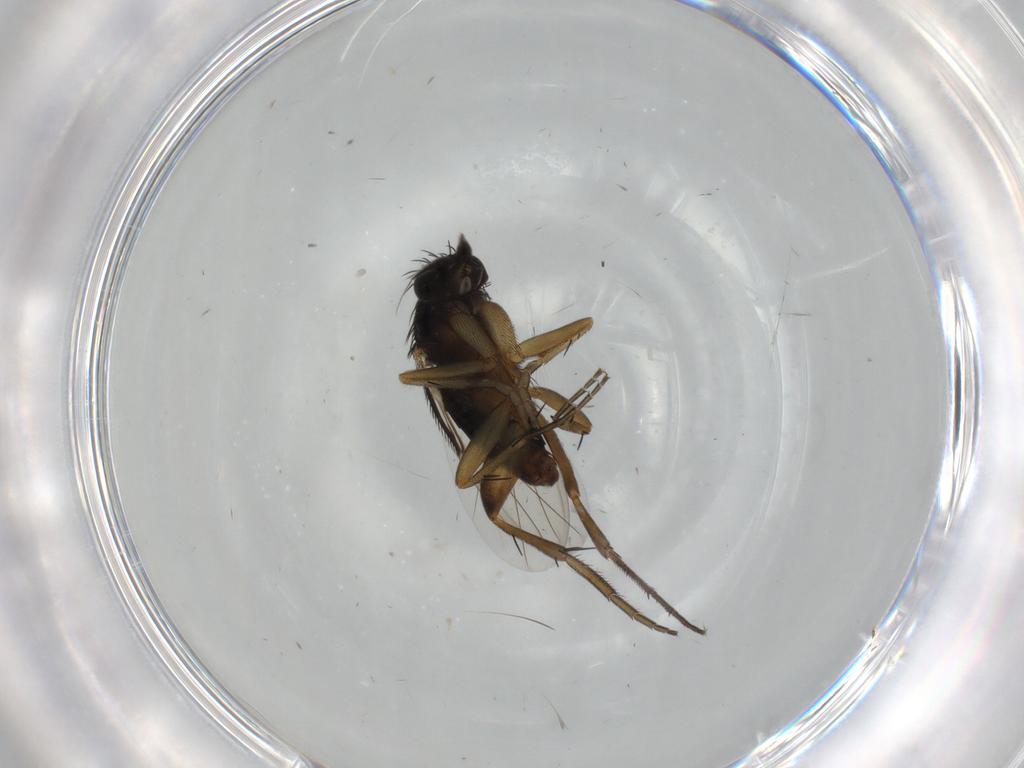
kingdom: Animalia
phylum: Arthropoda
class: Insecta
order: Diptera
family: Phoridae
